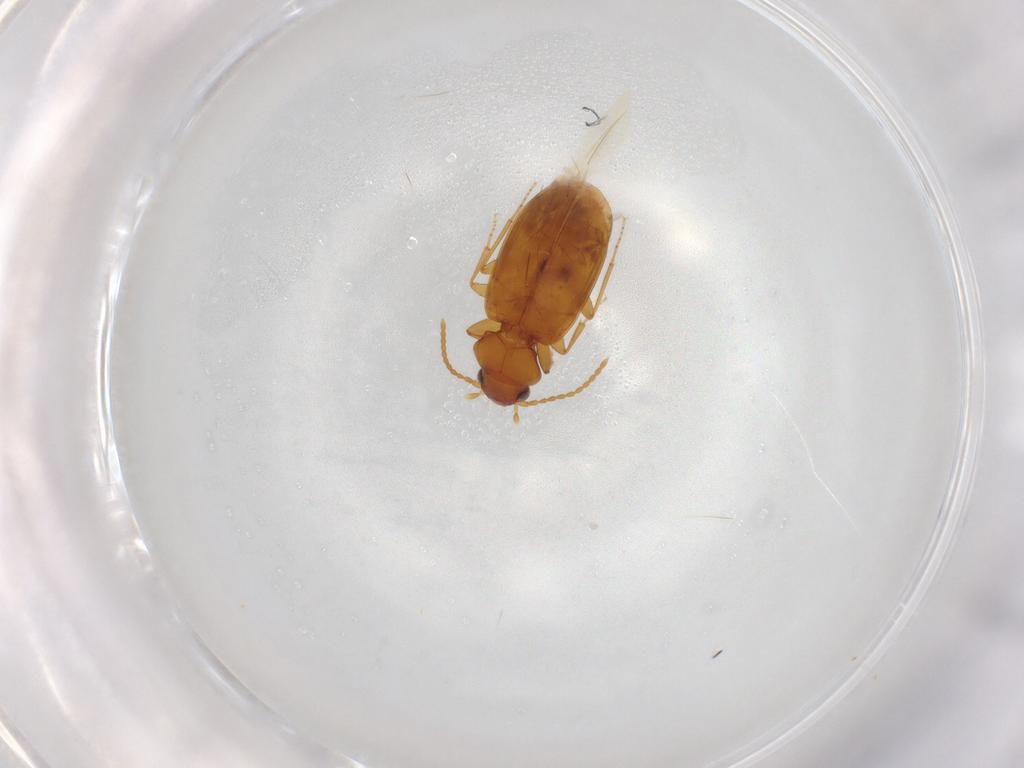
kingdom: Animalia
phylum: Arthropoda
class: Insecta
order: Coleoptera
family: Carabidae
